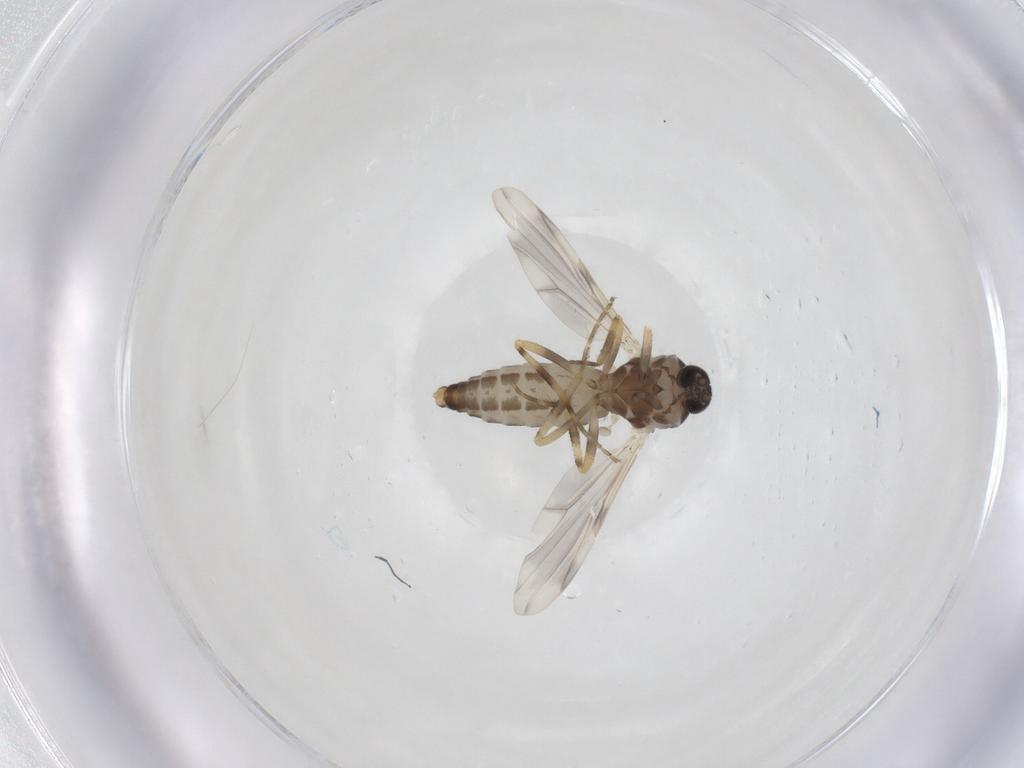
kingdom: Animalia
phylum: Arthropoda
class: Insecta
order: Diptera
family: Ceratopogonidae
